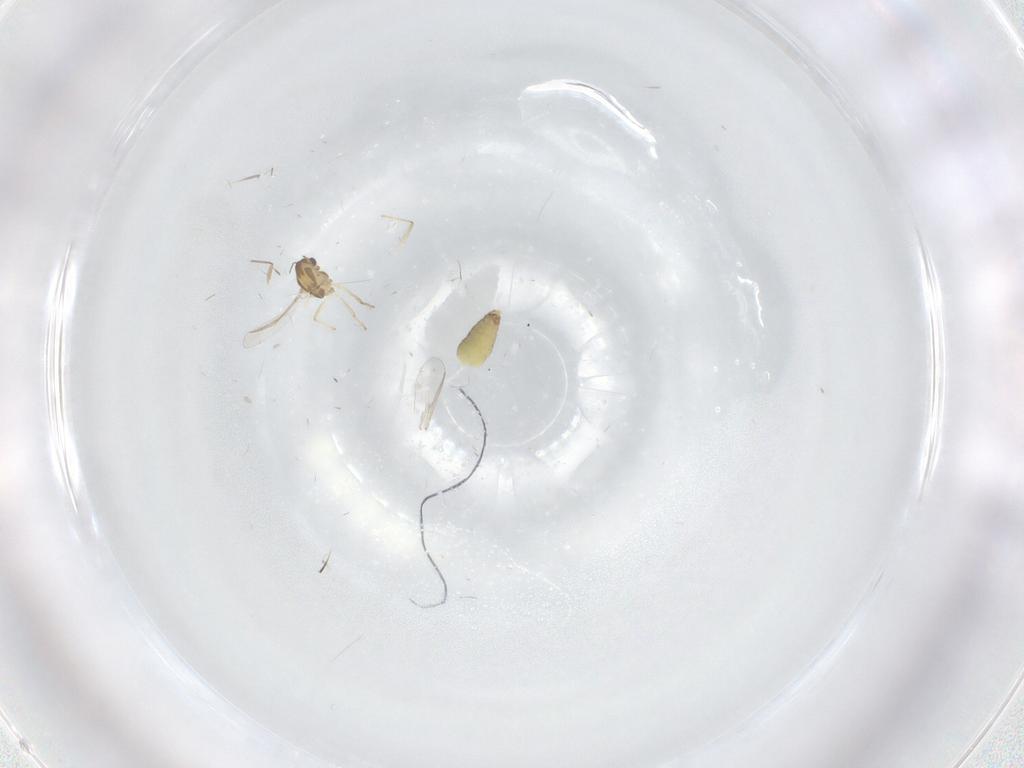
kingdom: Animalia
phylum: Arthropoda
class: Insecta
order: Diptera
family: Chironomidae
